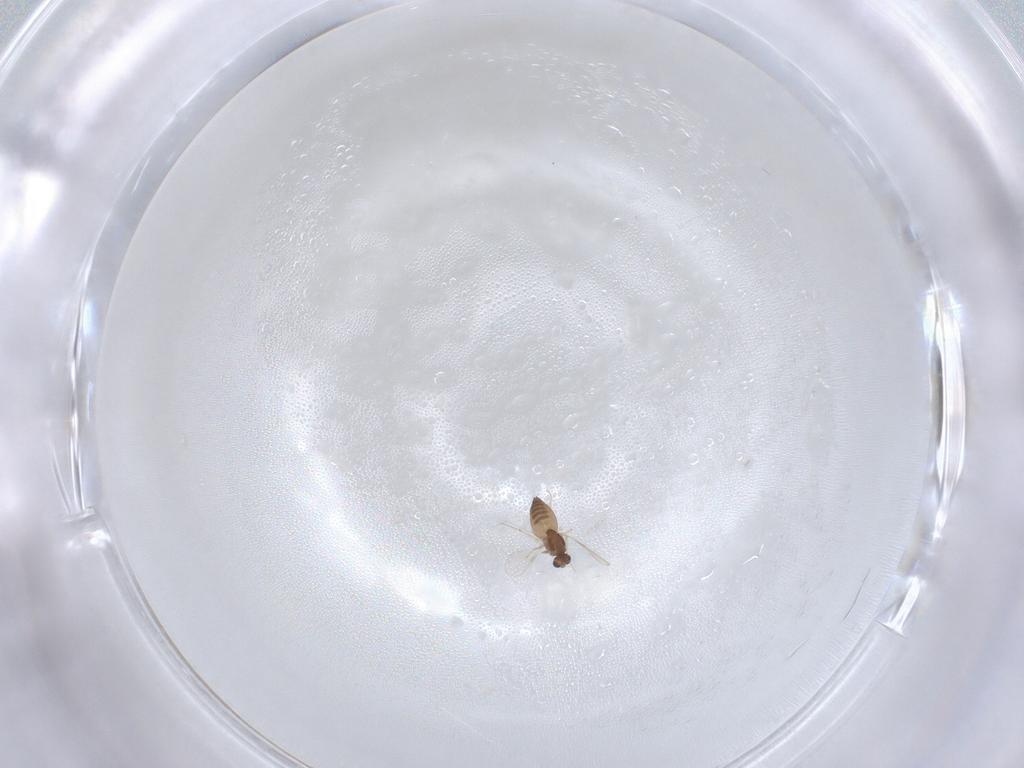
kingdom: Animalia
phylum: Arthropoda
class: Insecta
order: Diptera
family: Chironomidae
